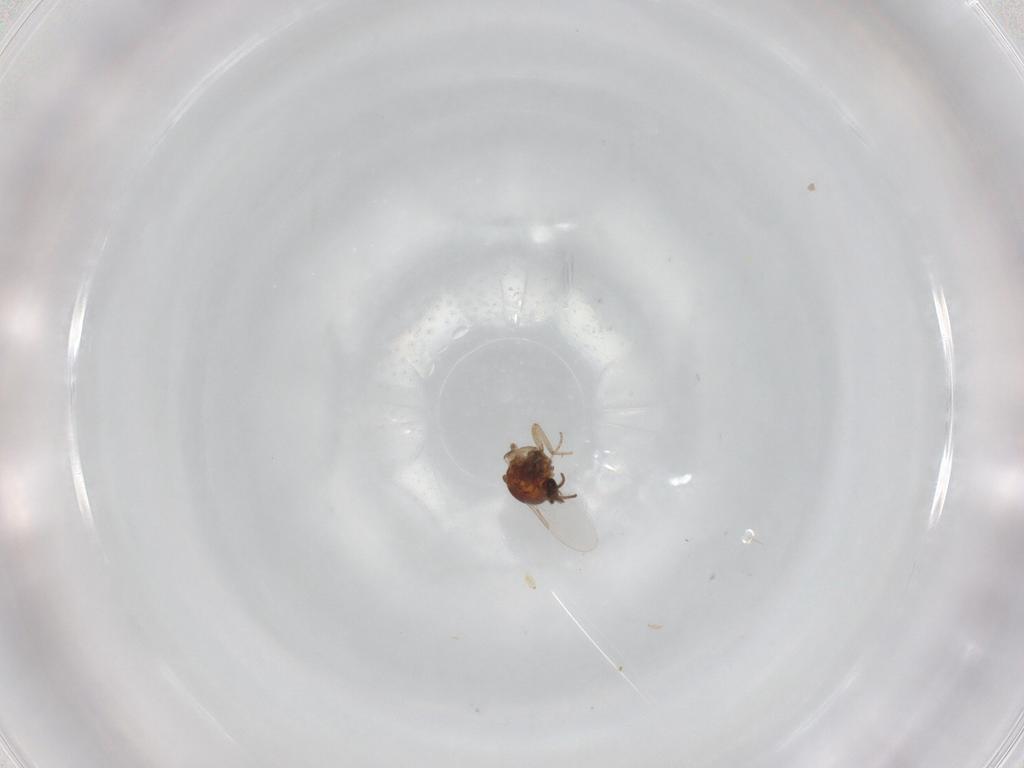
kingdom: Animalia
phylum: Arthropoda
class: Insecta
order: Diptera
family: Ceratopogonidae
